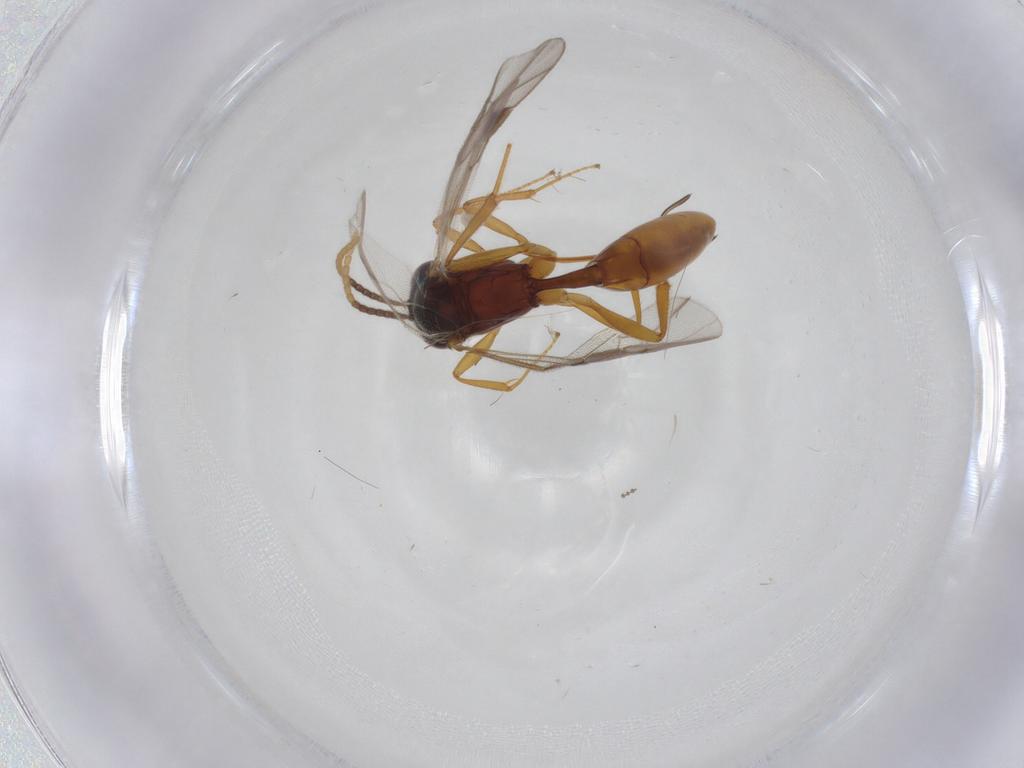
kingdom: Animalia
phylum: Arthropoda
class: Insecta
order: Hymenoptera
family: Ichneumonidae
